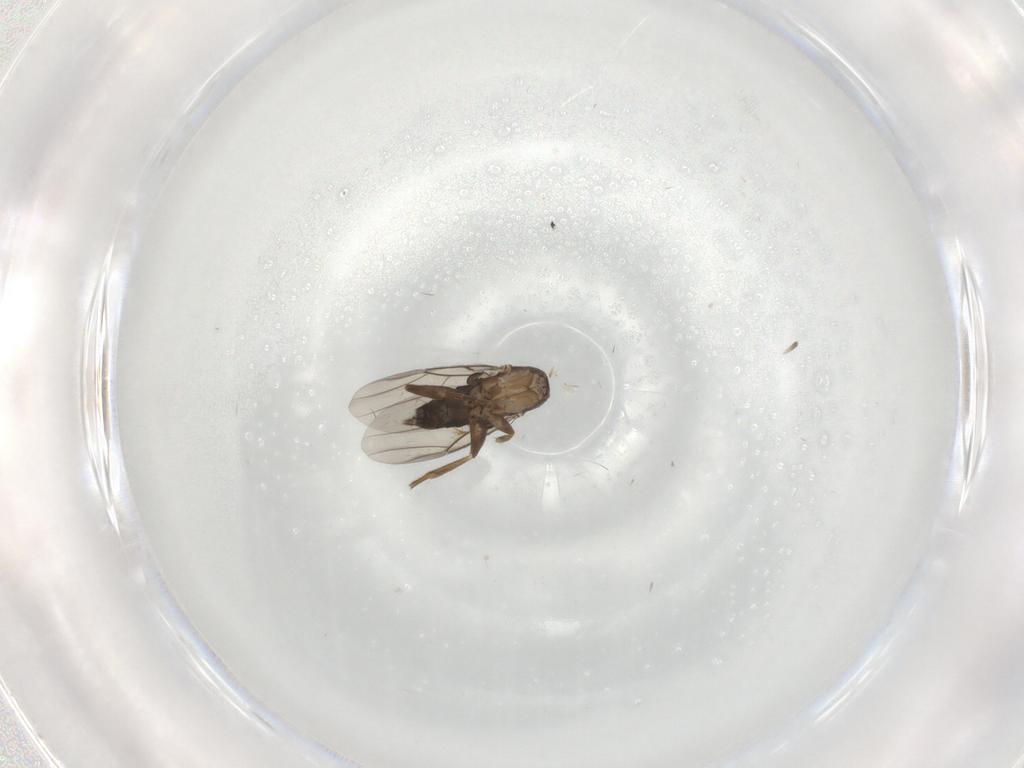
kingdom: Animalia
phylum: Arthropoda
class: Insecta
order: Diptera
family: Phoridae
